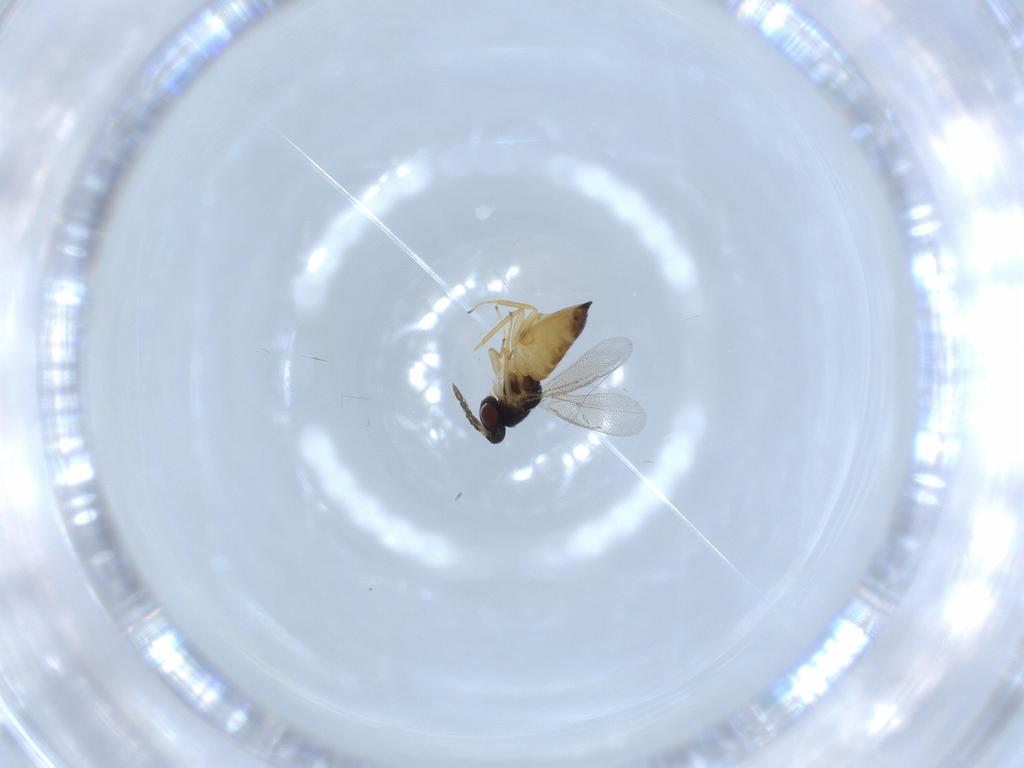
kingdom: Animalia
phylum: Arthropoda
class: Insecta
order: Hymenoptera
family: Eulophidae
